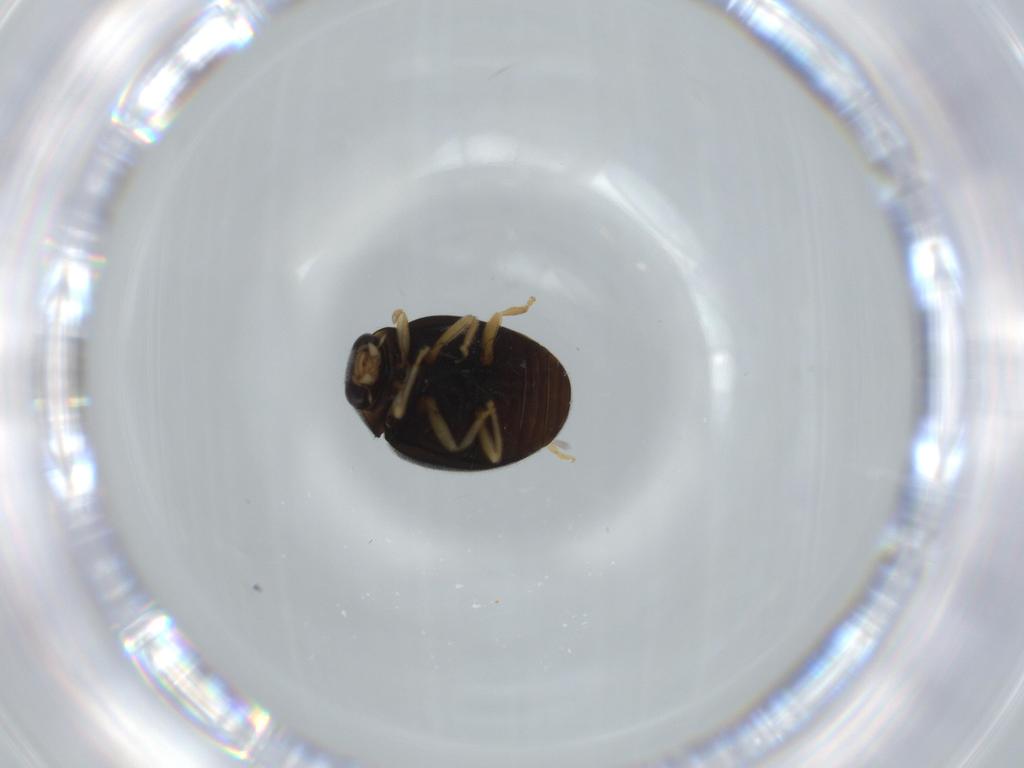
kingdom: Animalia
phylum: Arthropoda
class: Insecta
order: Coleoptera
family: Coccinellidae
